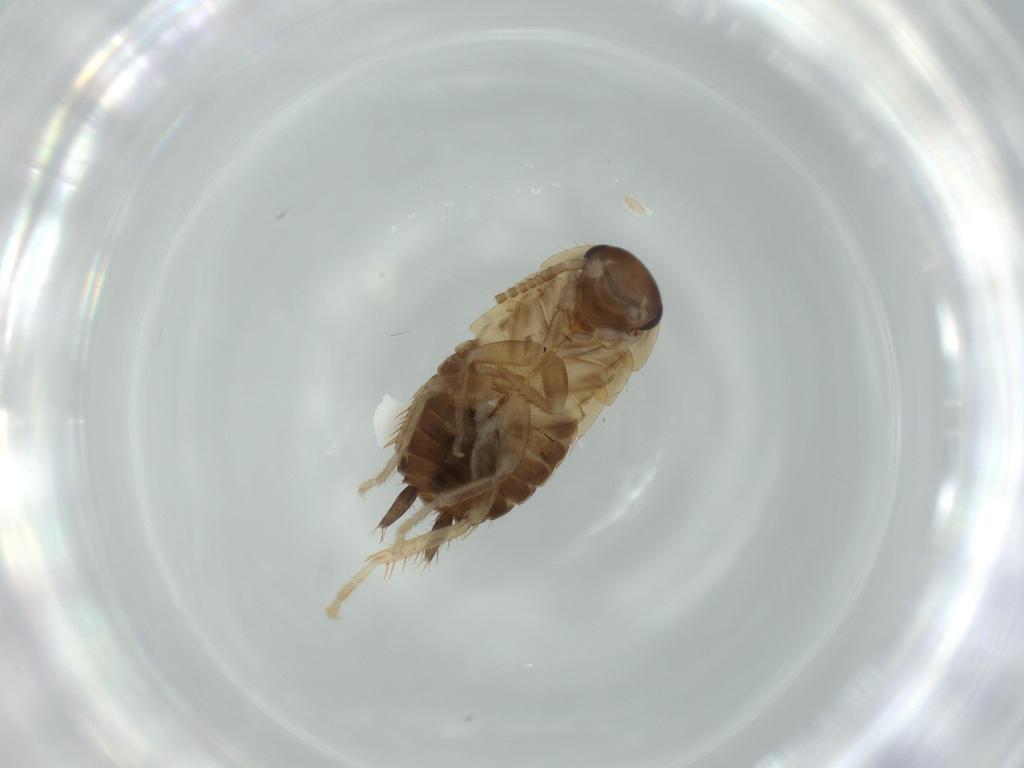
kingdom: Animalia
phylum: Arthropoda
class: Insecta
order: Blattodea
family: Ectobiidae
